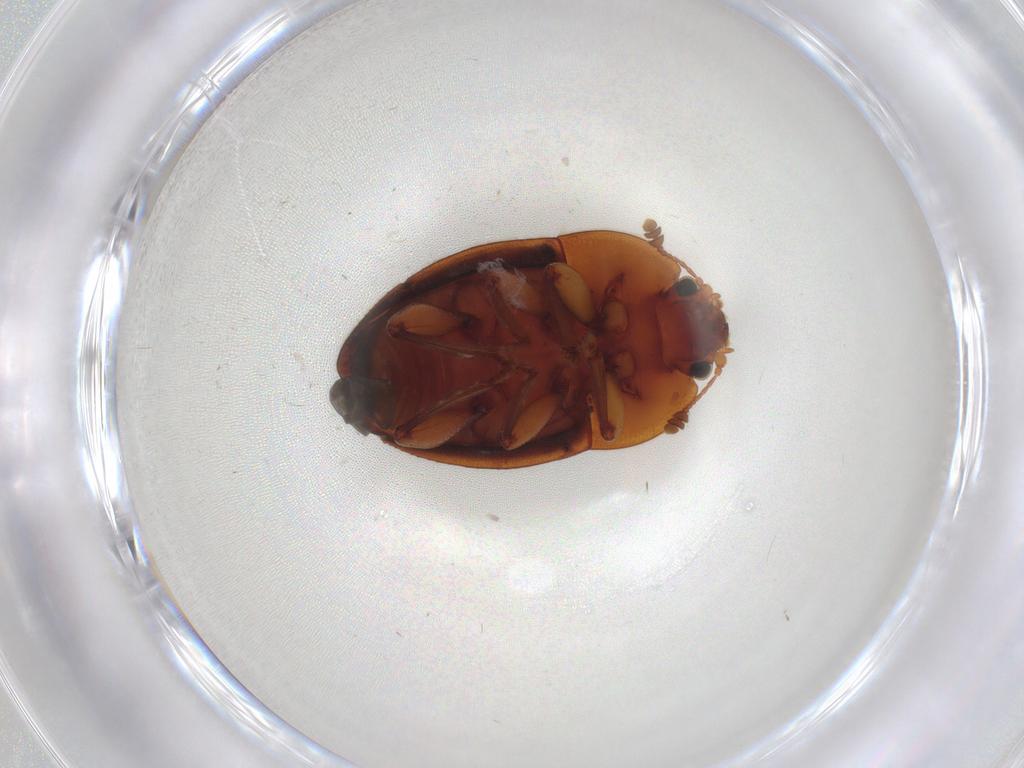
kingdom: Animalia
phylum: Arthropoda
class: Insecta
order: Coleoptera
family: Nitidulidae
